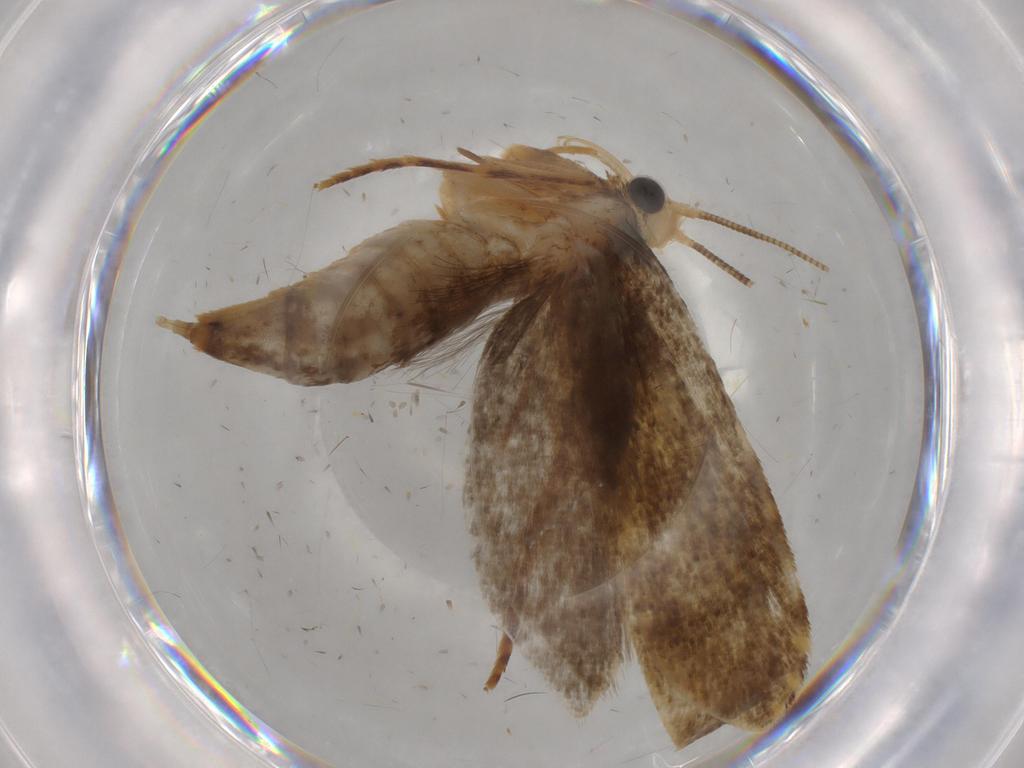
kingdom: Animalia
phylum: Arthropoda
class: Insecta
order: Lepidoptera
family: Tineidae
